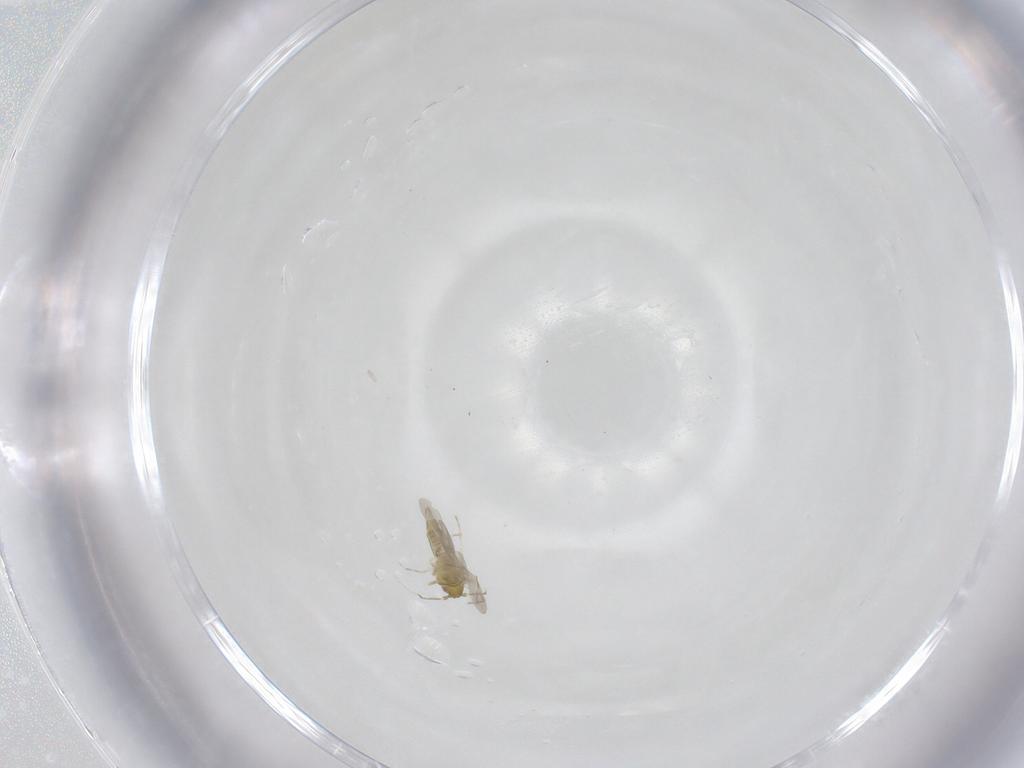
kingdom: Animalia
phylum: Arthropoda
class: Insecta
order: Hemiptera
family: Aleyrodidae
